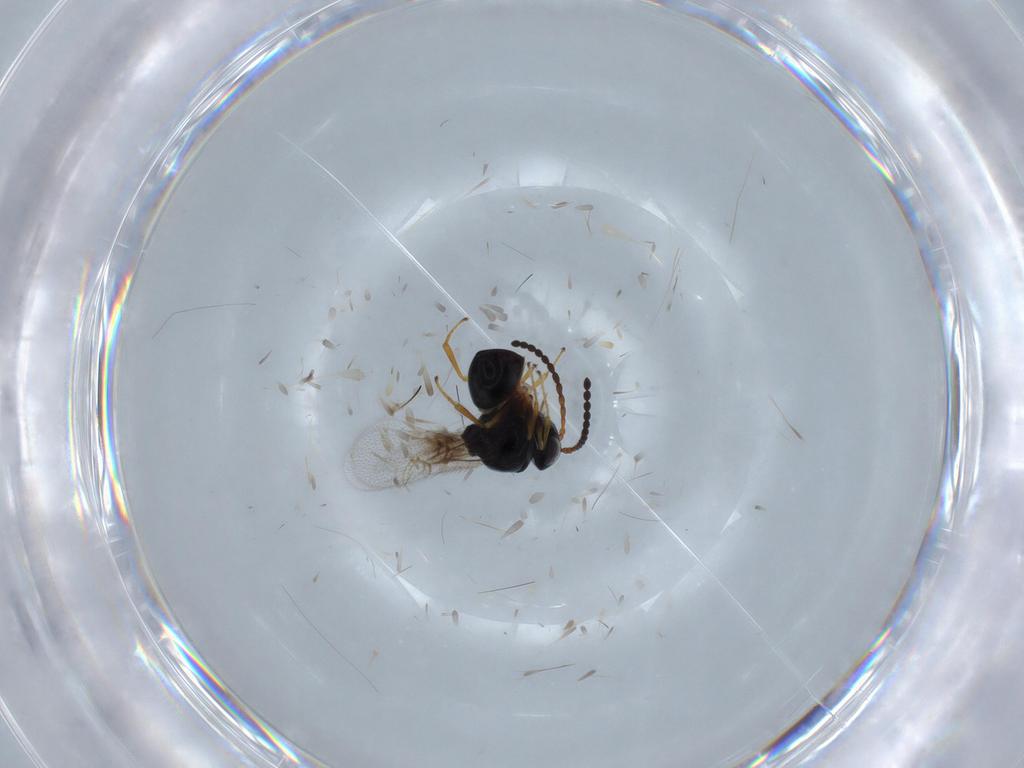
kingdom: Animalia
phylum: Arthropoda
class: Insecta
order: Hymenoptera
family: Figitidae
